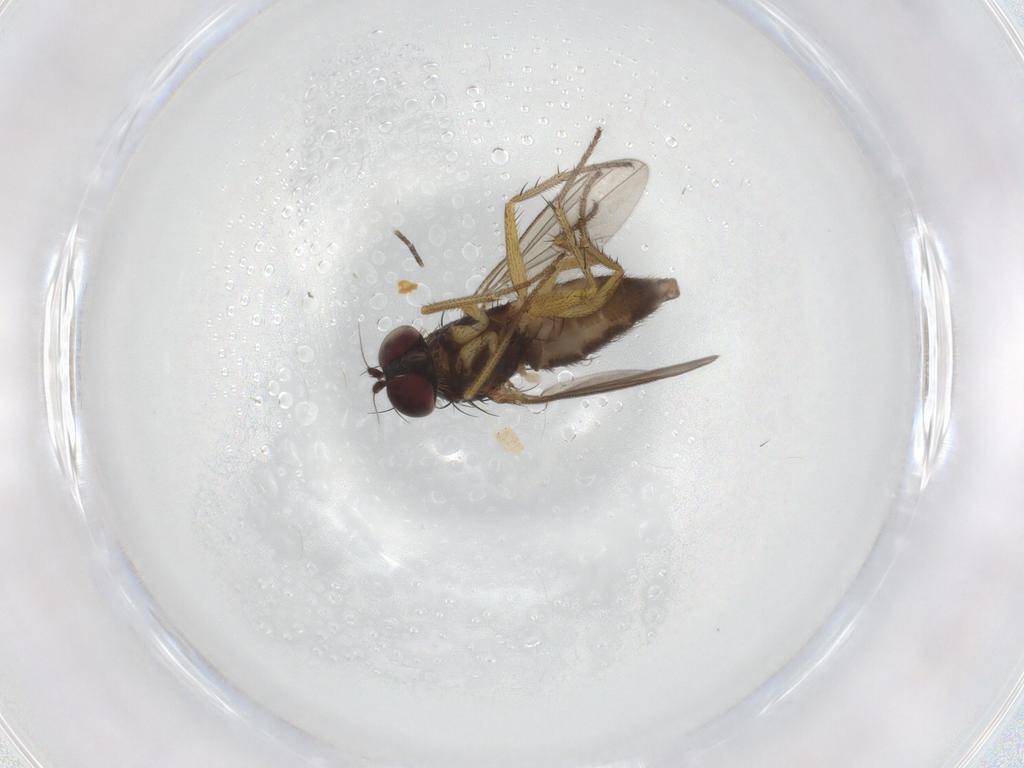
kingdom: Animalia
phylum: Arthropoda
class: Insecta
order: Diptera
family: Culicidae
